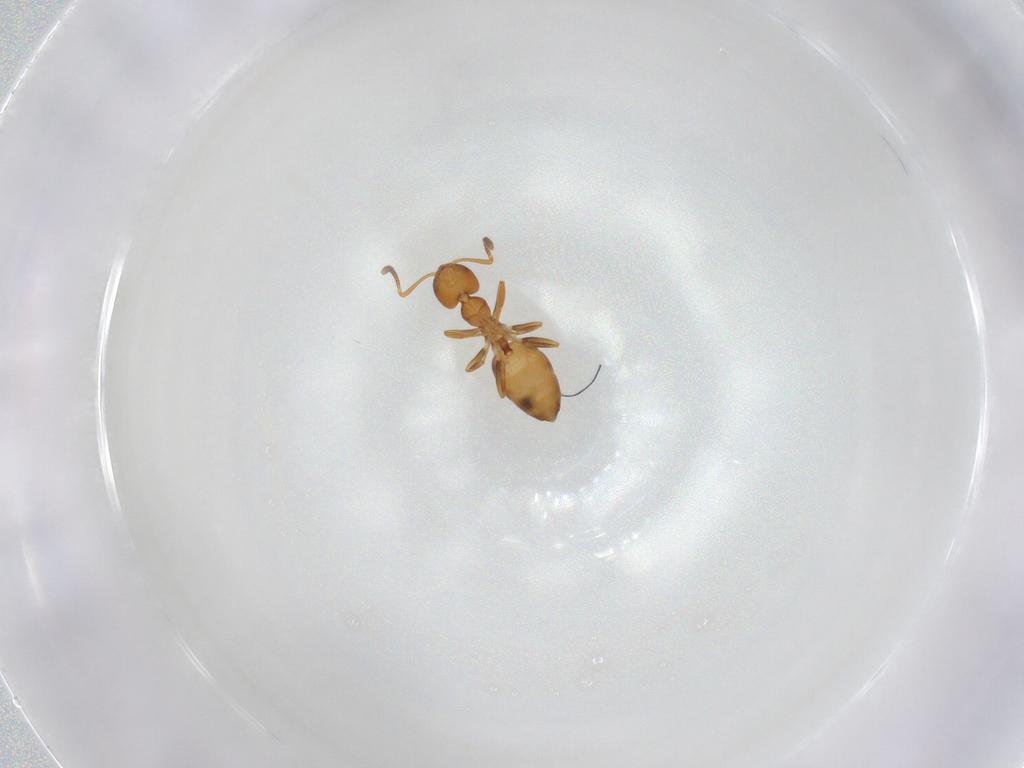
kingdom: Animalia
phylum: Arthropoda
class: Insecta
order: Hymenoptera
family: Formicidae
